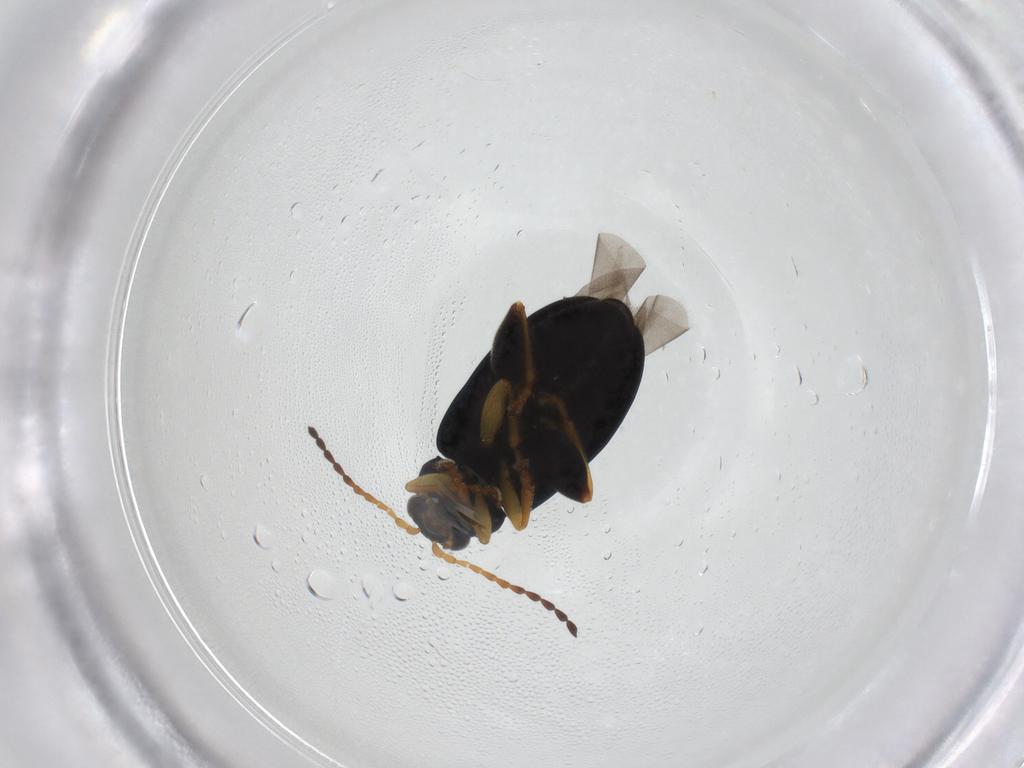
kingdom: Animalia
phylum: Arthropoda
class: Insecta
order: Coleoptera
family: Chrysomelidae
